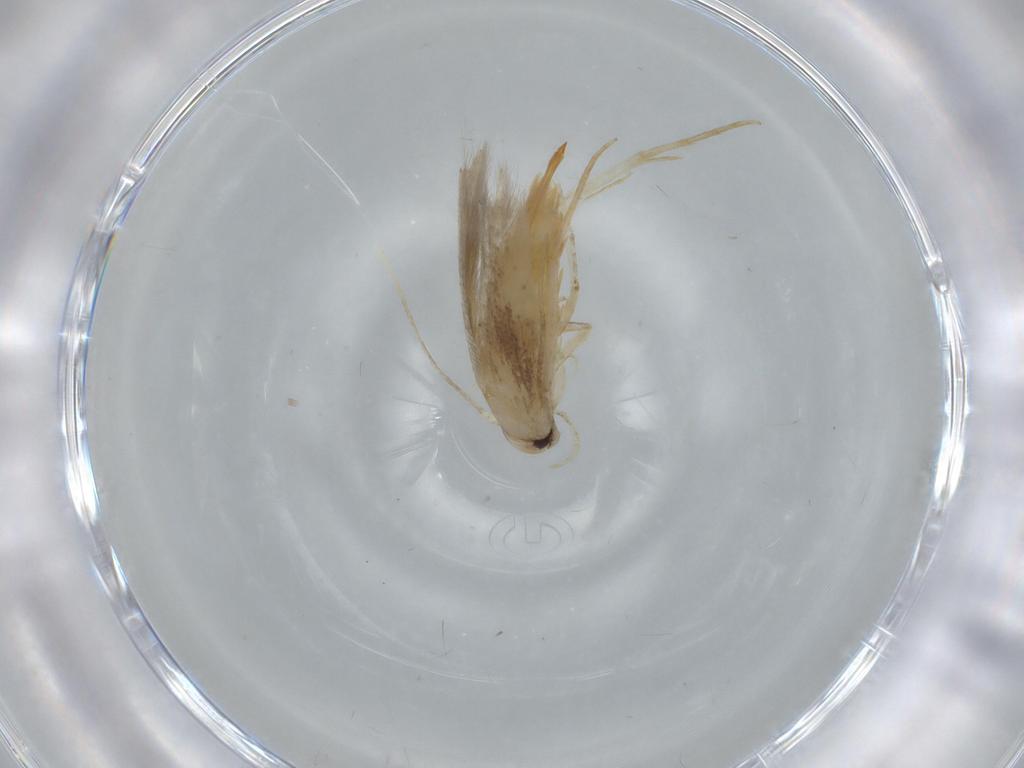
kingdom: Animalia
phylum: Arthropoda
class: Insecta
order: Lepidoptera
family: Cosmopterigidae
